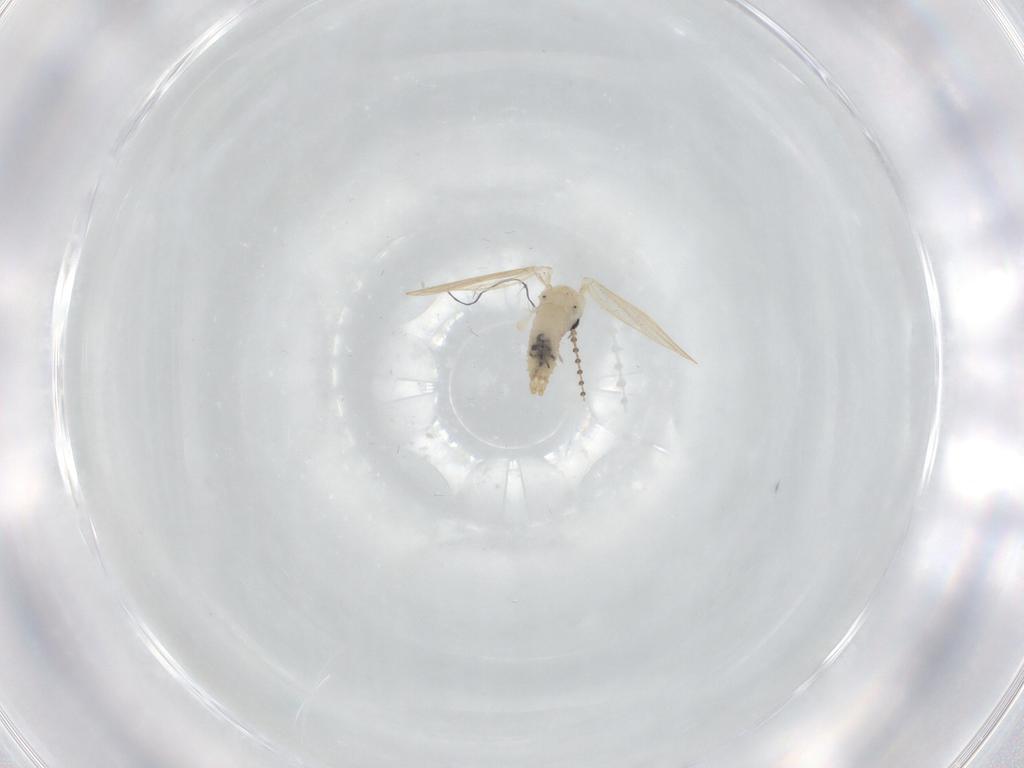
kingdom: Animalia
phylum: Arthropoda
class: Insecta
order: Diptera
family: Psychodidae
